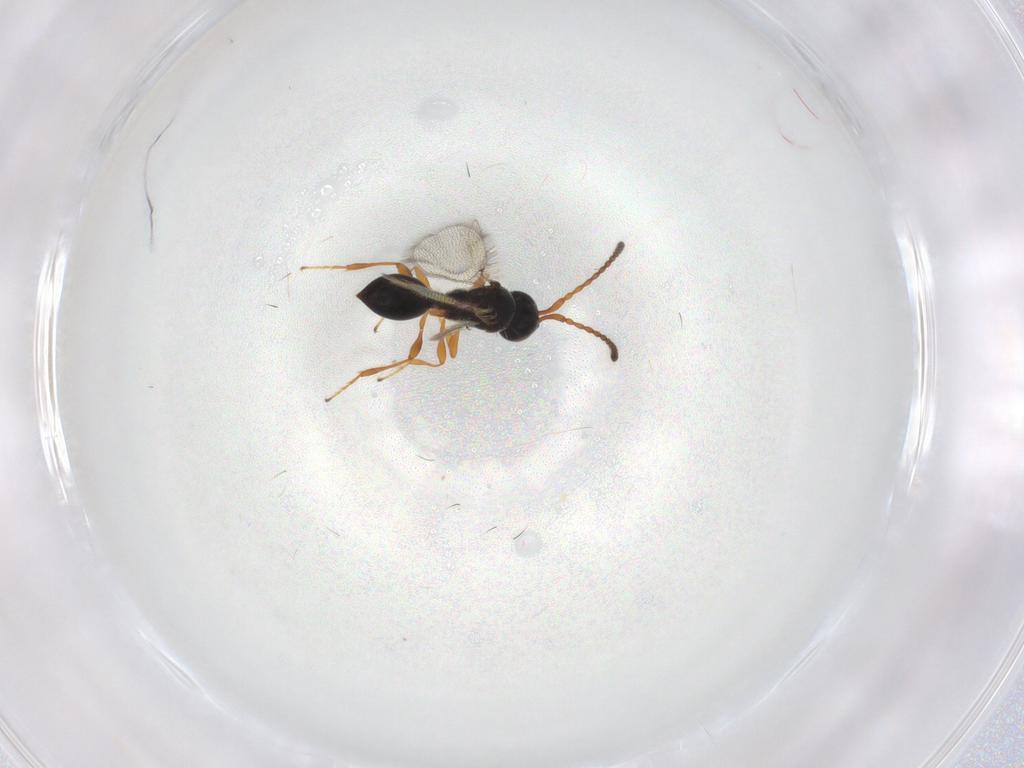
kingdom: Animalia
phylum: Arthropoda
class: Insecta
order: Hymenoptera
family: Diapriidae
